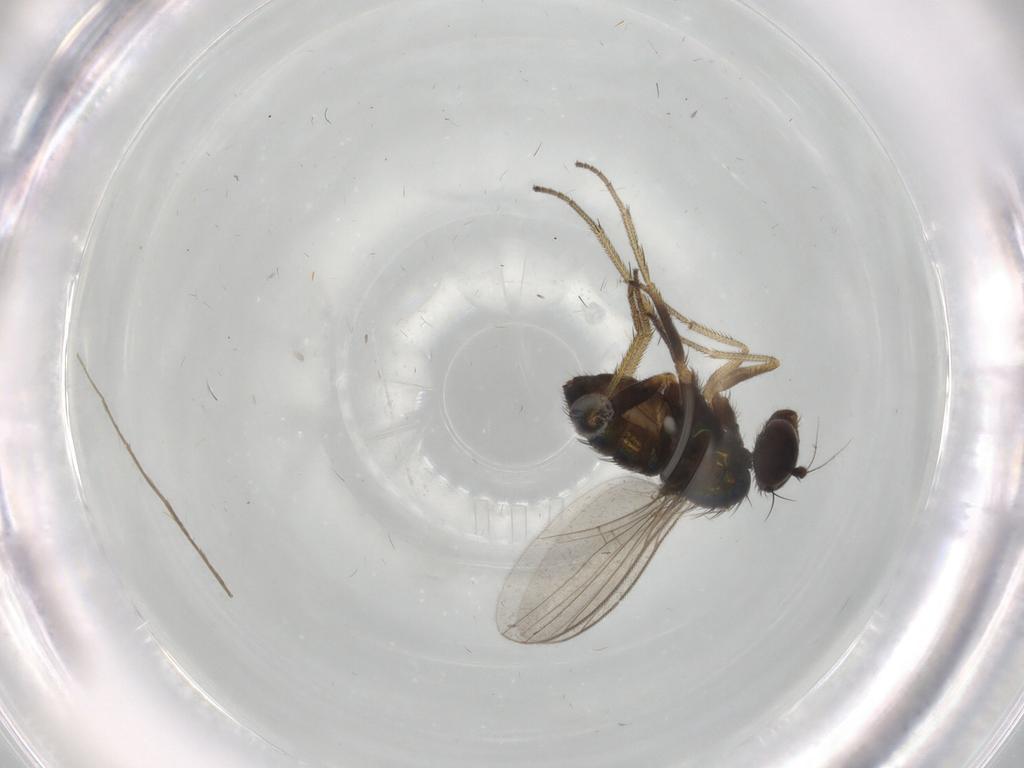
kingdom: Animalia
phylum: Arthropoda
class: Insecta
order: Diptera
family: Dolichopodidae
